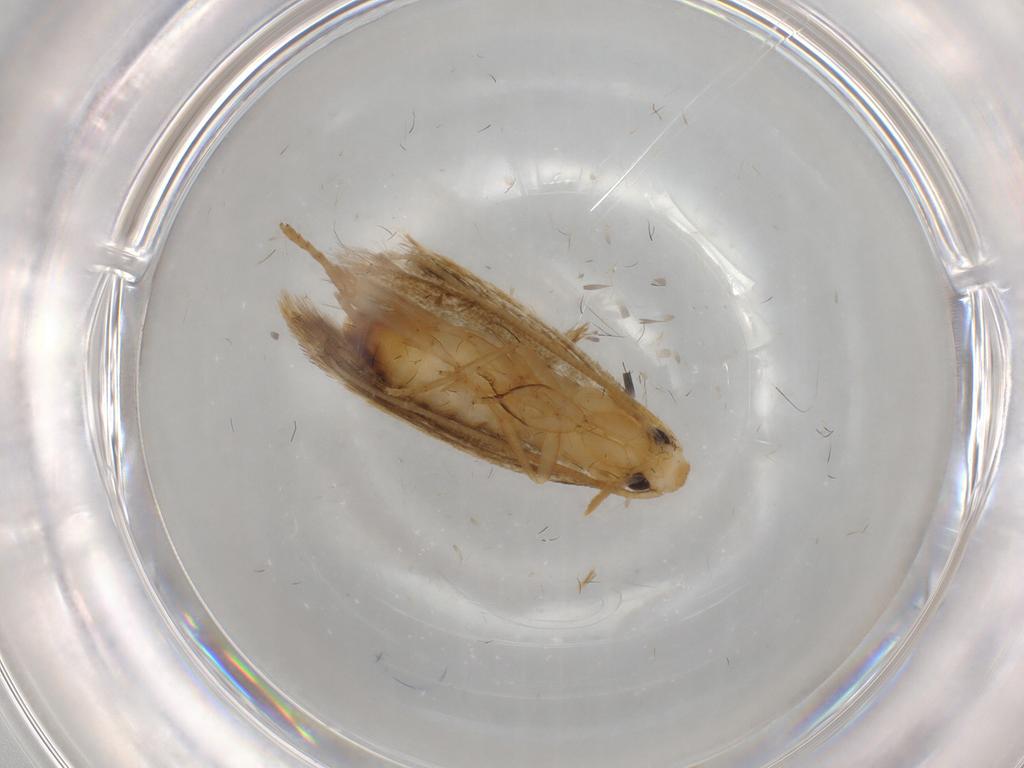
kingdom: Animalia
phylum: Arthropoda
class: Insecta
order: Lepidoptera
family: Tineidae
